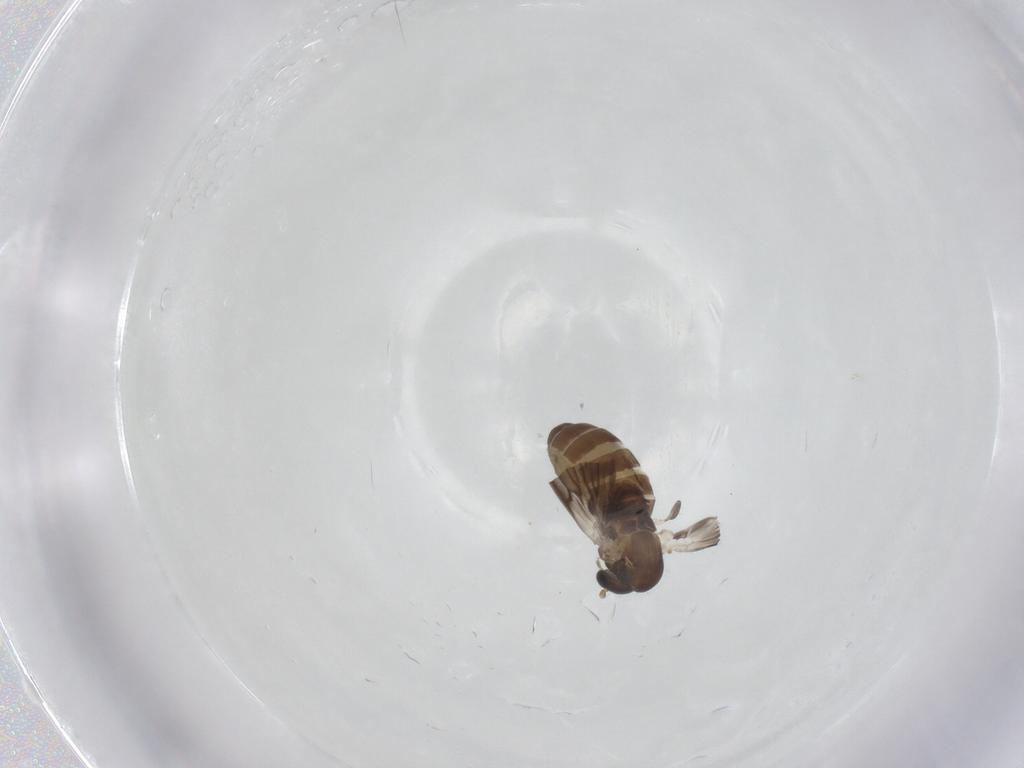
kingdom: Animalia
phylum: Arthropoda
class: Insecta
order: Diptera
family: Psychodidae
